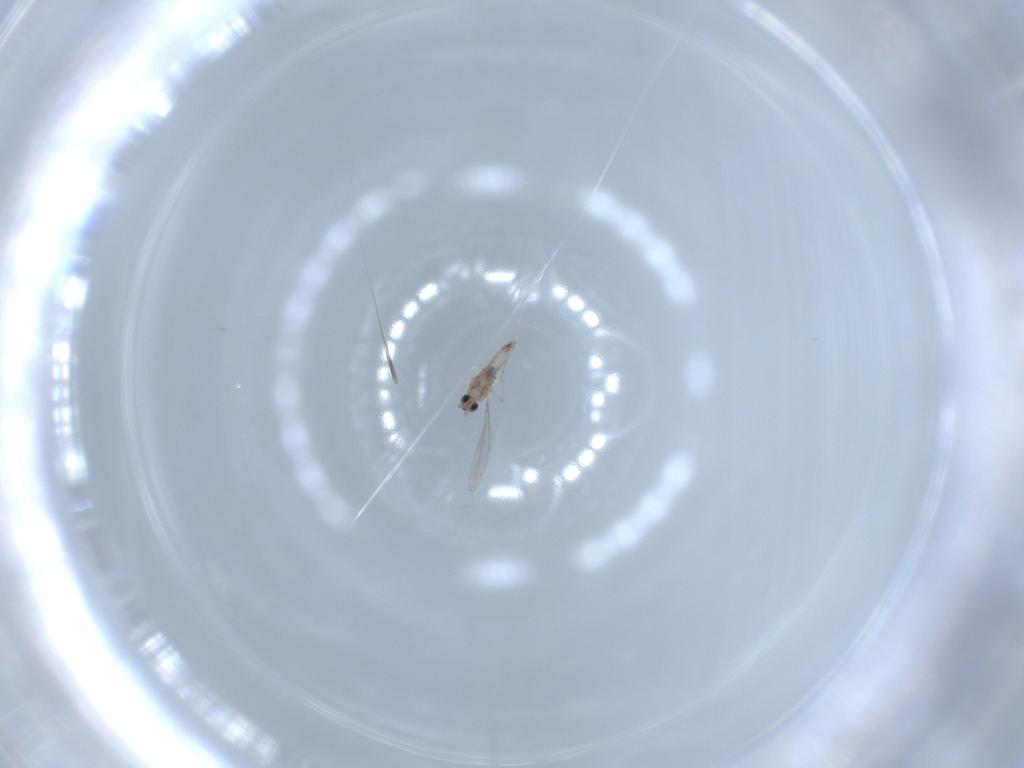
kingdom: Animalia
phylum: Arthropoda
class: Insecta
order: Diptera
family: Cecidomyiidae
